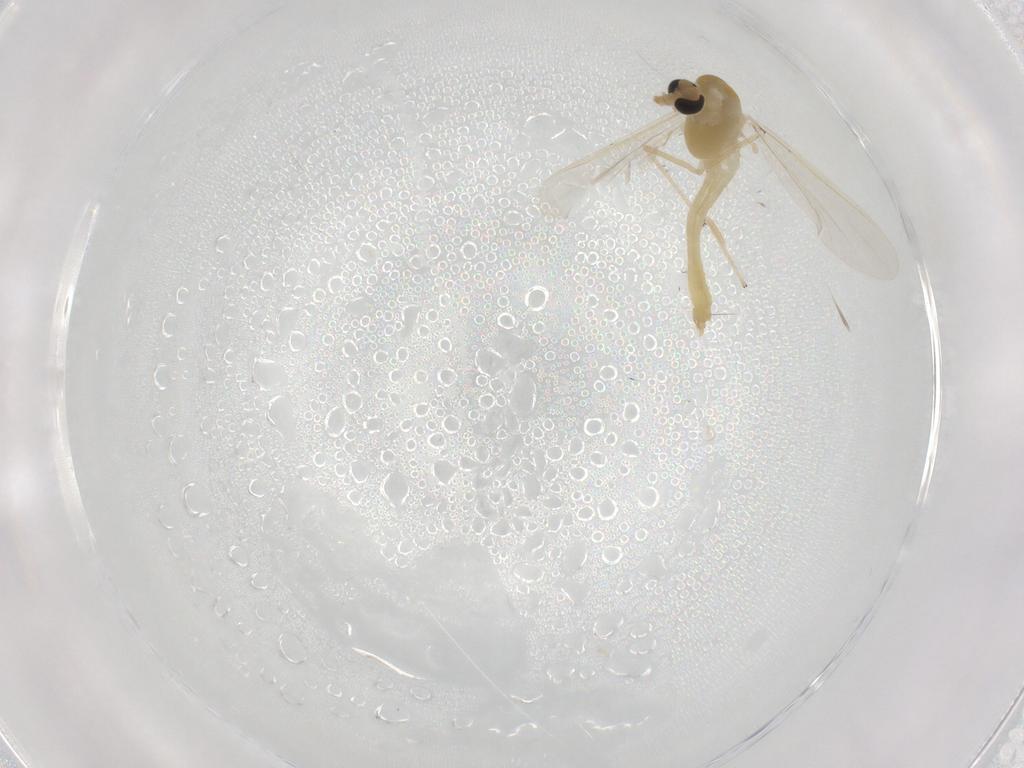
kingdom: Animalia
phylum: Arthropoda
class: Insecta
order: Diptera
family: Chironomidae
